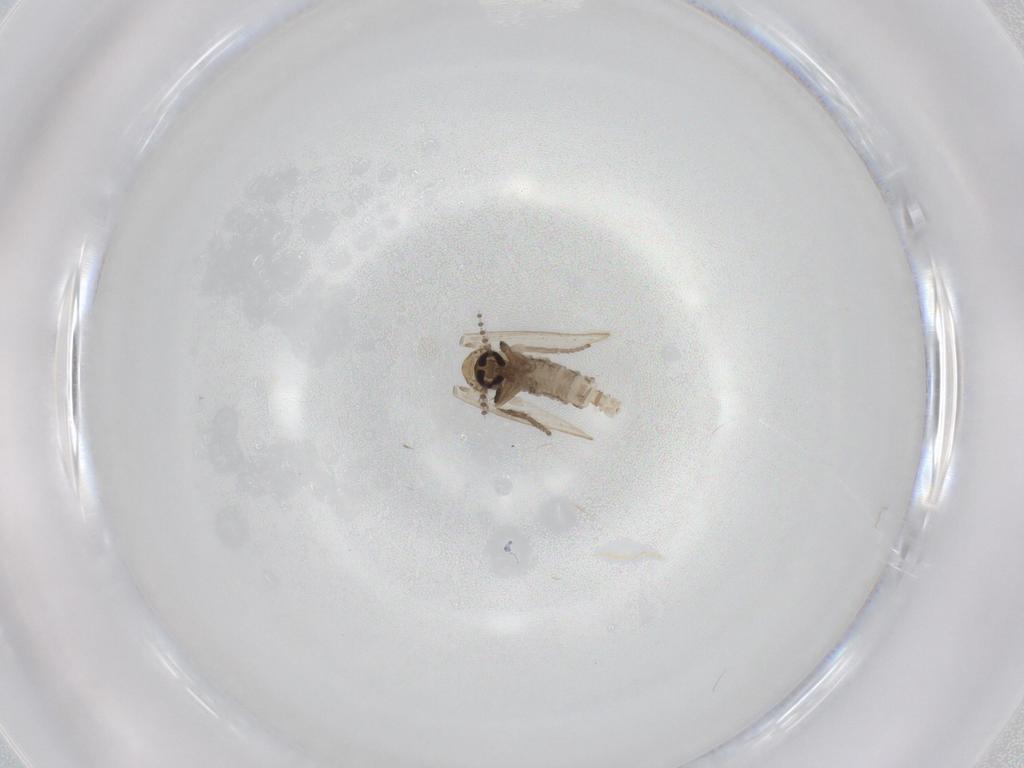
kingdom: Animalia
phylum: Arthropoda
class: Insecta
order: Diptera
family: Psychodidae
